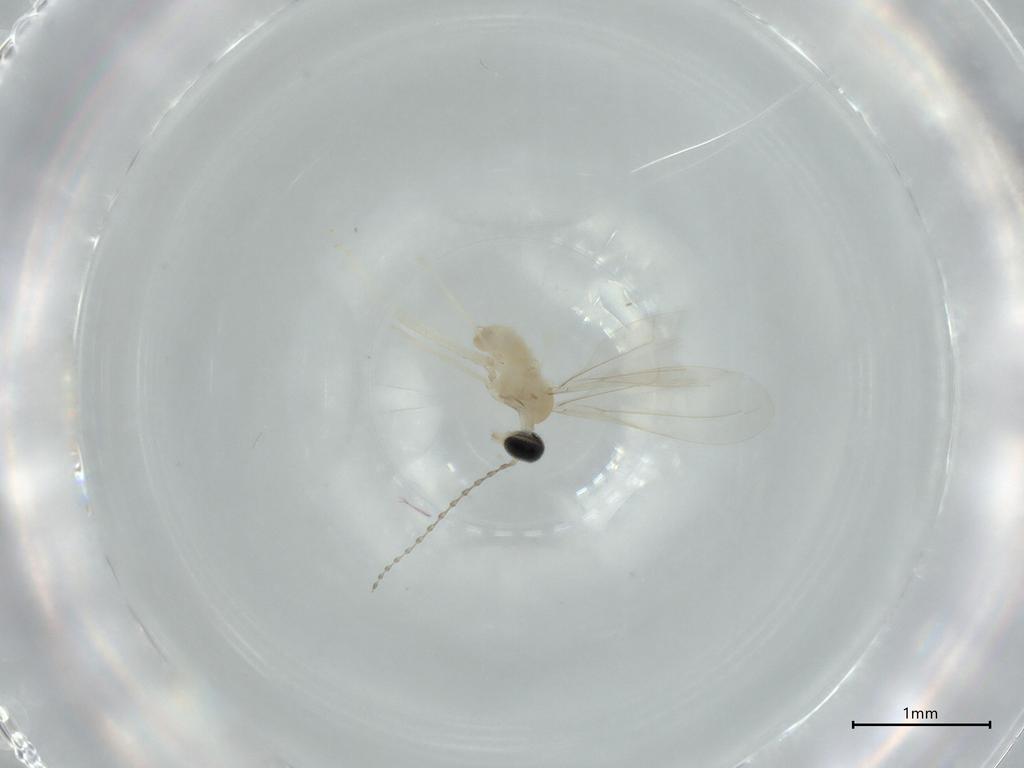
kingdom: Animalia
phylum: Arthropoda
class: Insecta
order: Diptera
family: Cecidomyiidae
